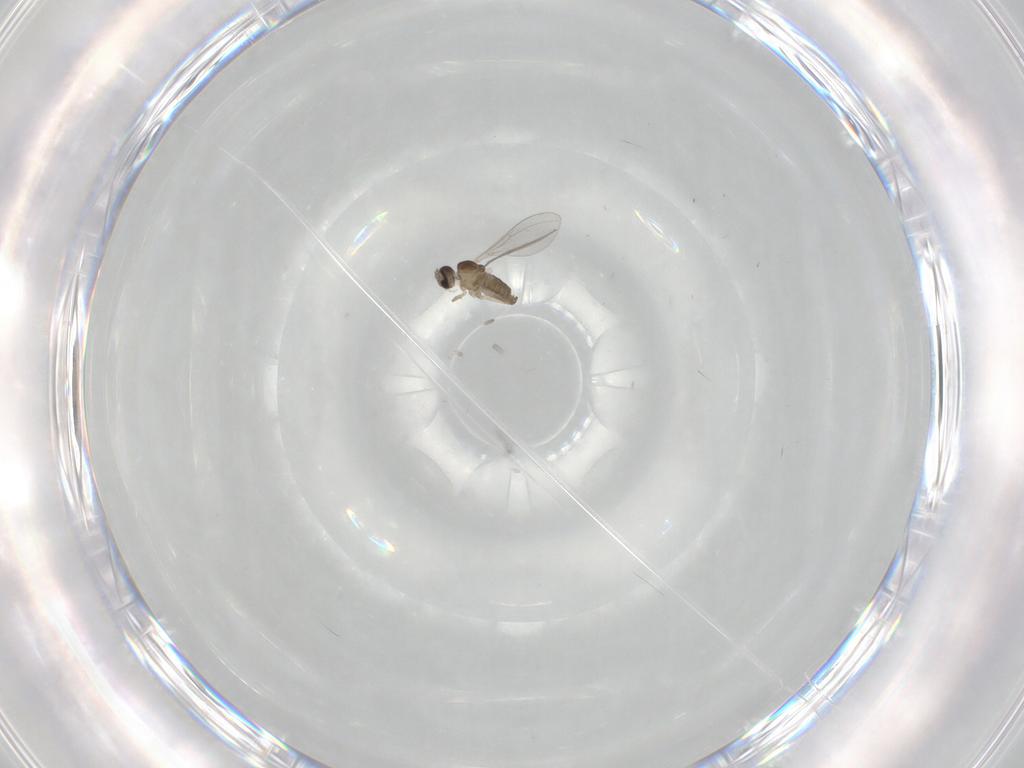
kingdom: Animalia
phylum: Arthropoda
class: Insecta
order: Diptera
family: Cecidomyiidae
